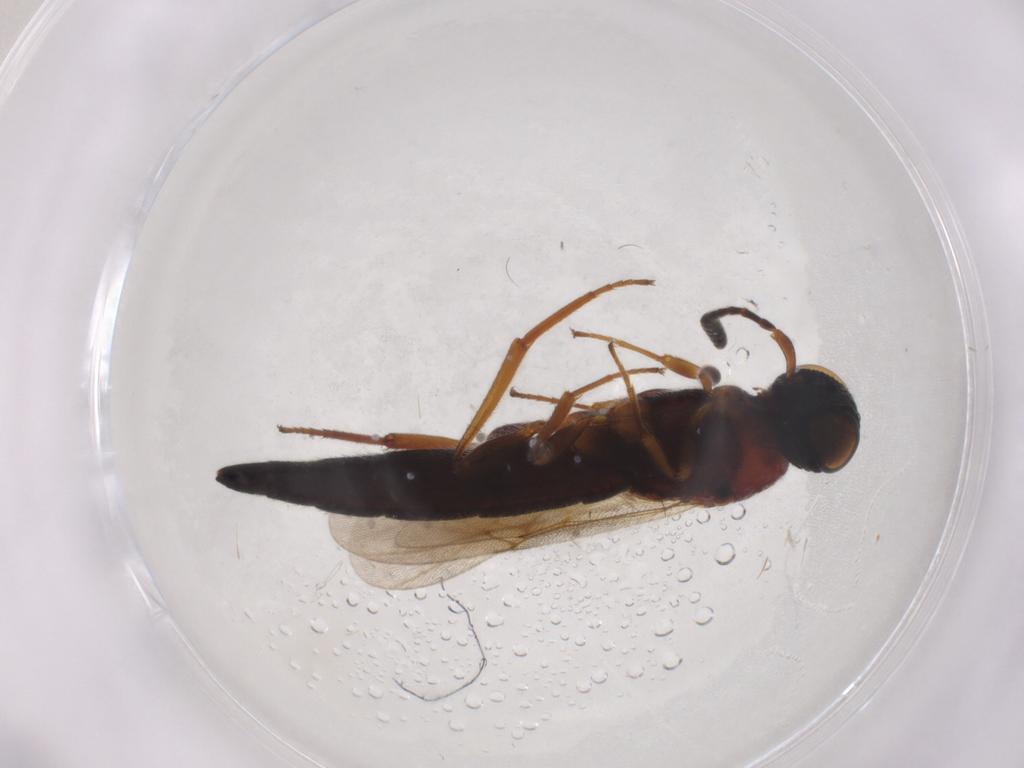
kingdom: Animalia
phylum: Arthropoda
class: Insecta
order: Hymenoptera
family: Scelionidae
